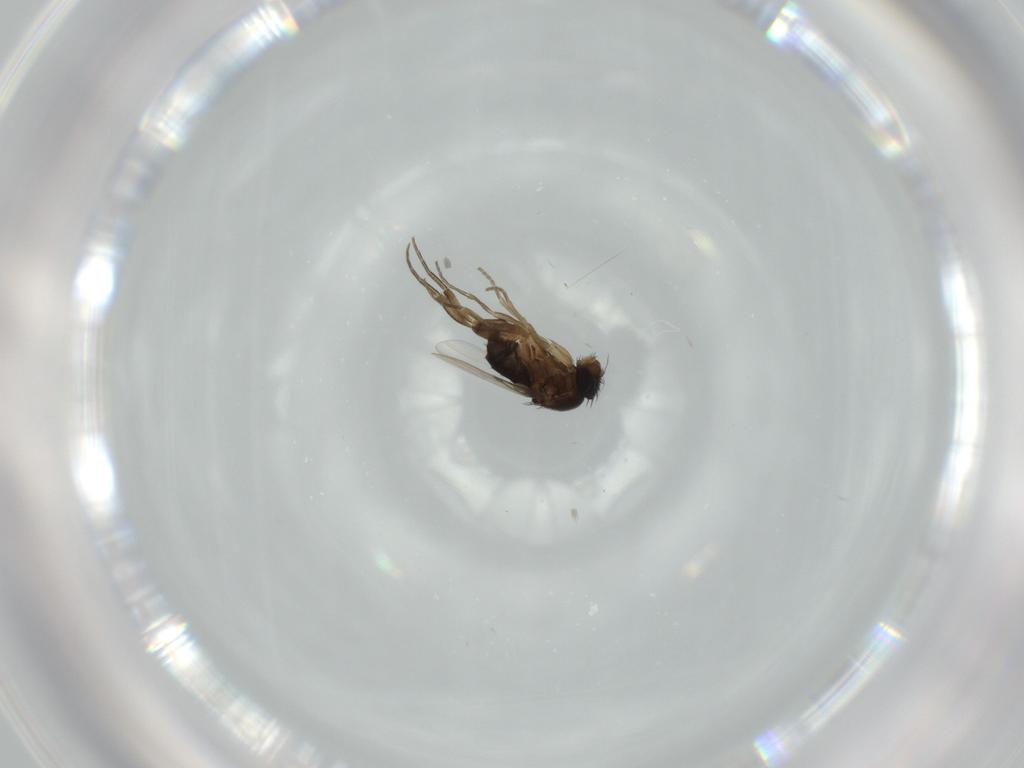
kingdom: Animalia
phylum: Arthropoda
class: Insecta
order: Diptera
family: Phoridae
